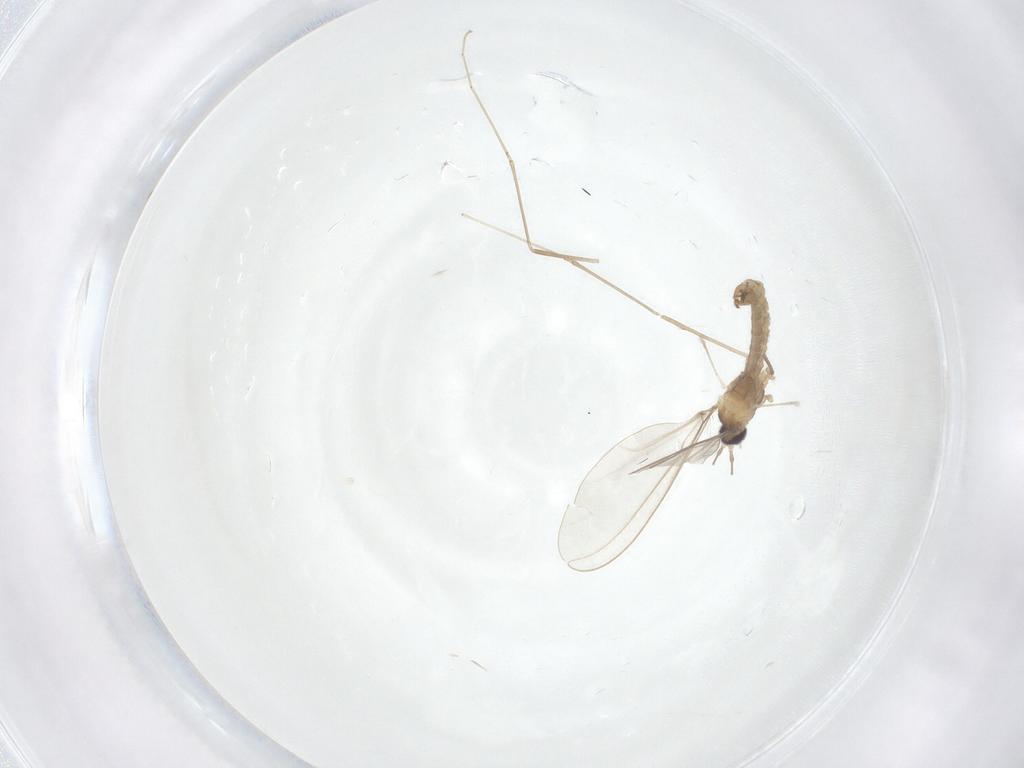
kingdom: Animalia
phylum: Arthropoda
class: Insecta
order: Diptera
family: Cecidomyiidae
